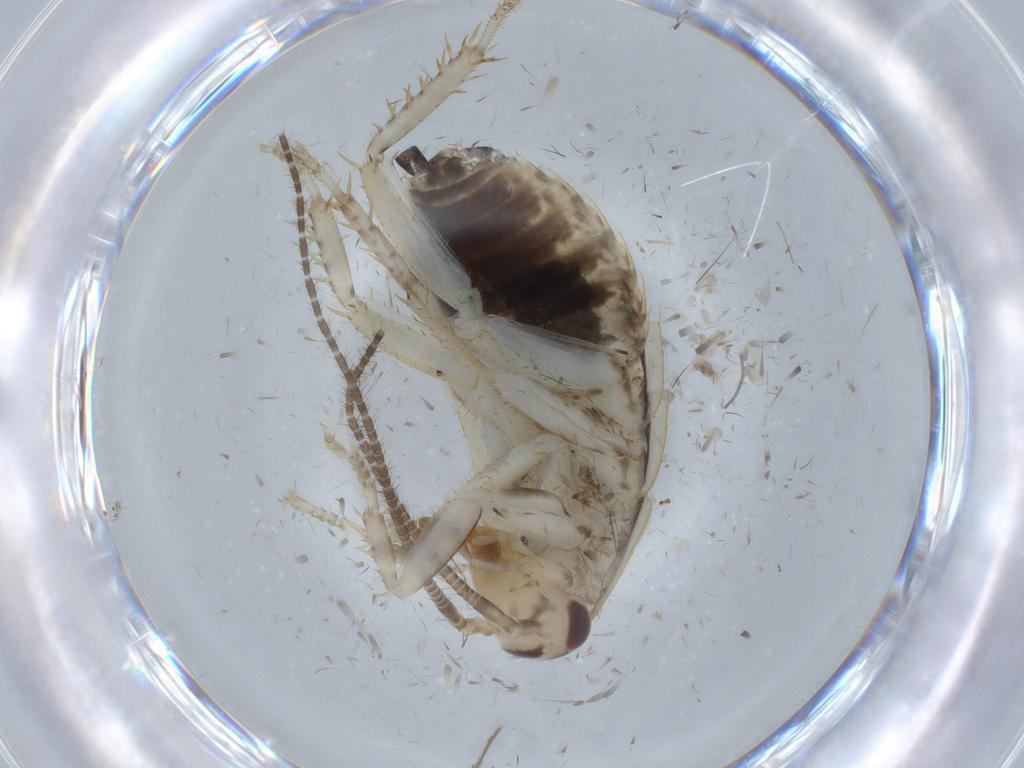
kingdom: Animalia
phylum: Arthropoda
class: Insecta
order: Blattodea
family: Ectobiidae
